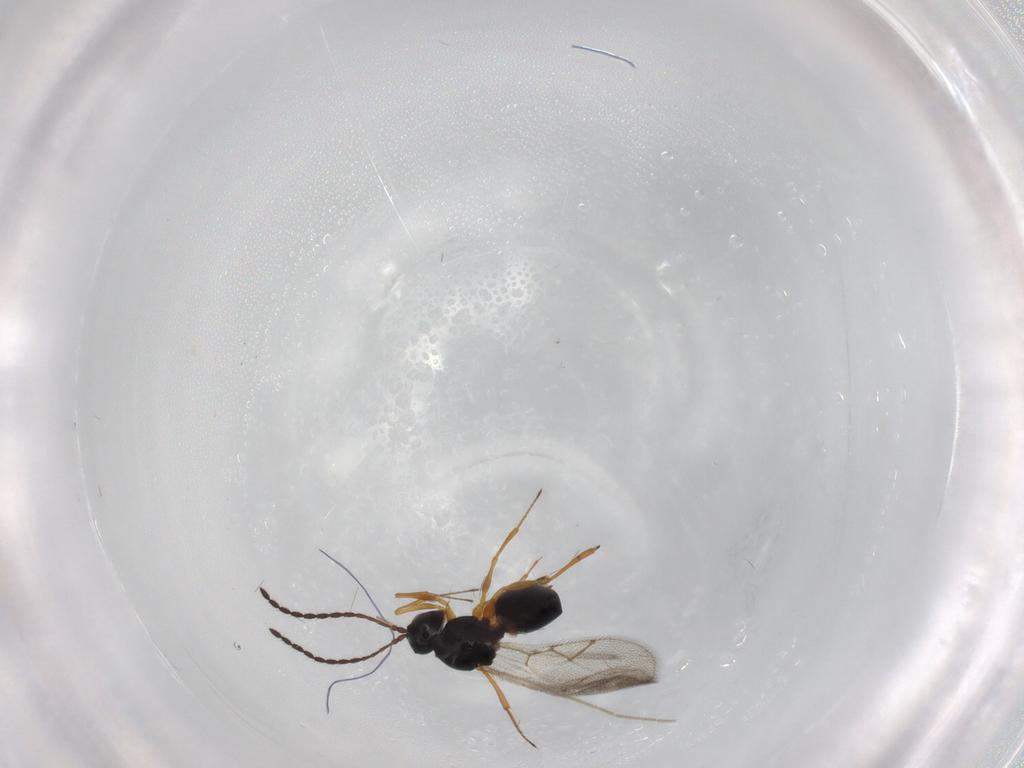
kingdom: Animalia
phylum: Arthropoda
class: Insecta
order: Hymenoptera
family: Figitidae
